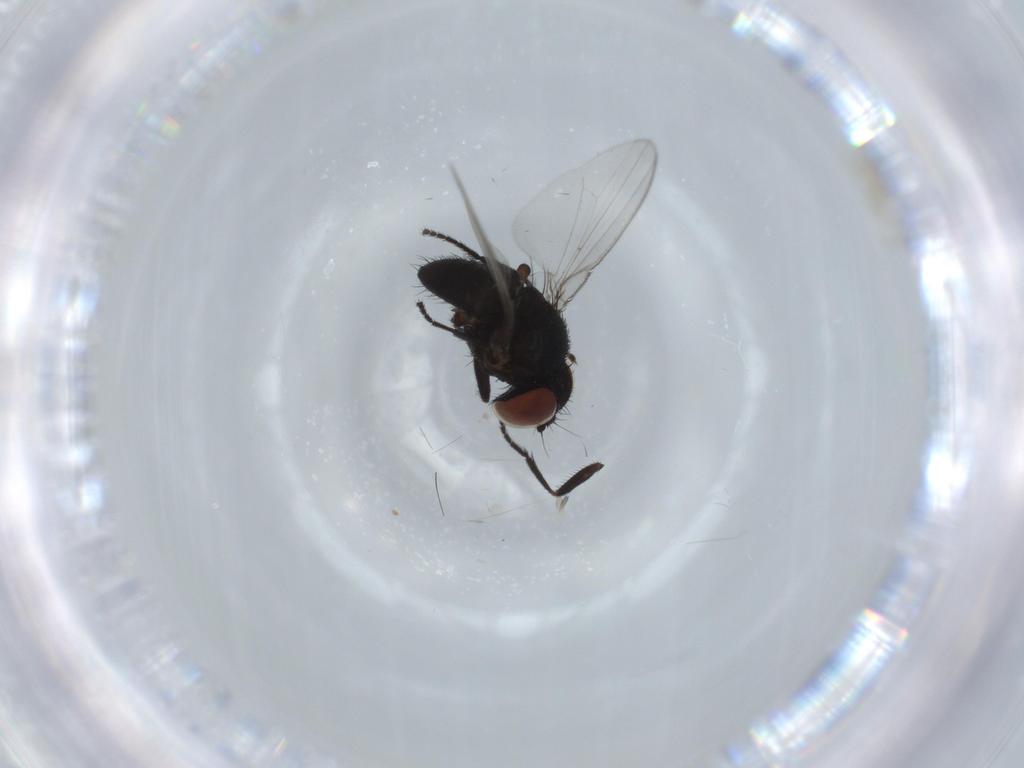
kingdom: Animalia
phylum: Arthropoda
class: Insecta
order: Diptera
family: Milichiidae
